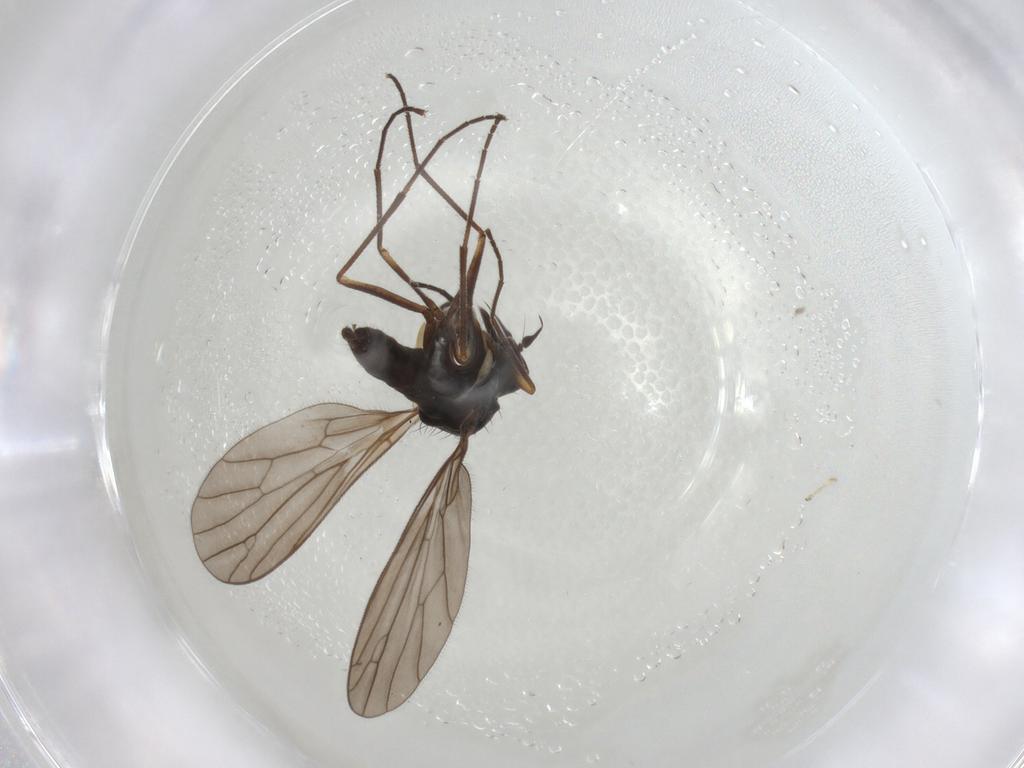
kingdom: Animalia
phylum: Arthropoda
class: Insecta
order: Diptera
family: Empididae
